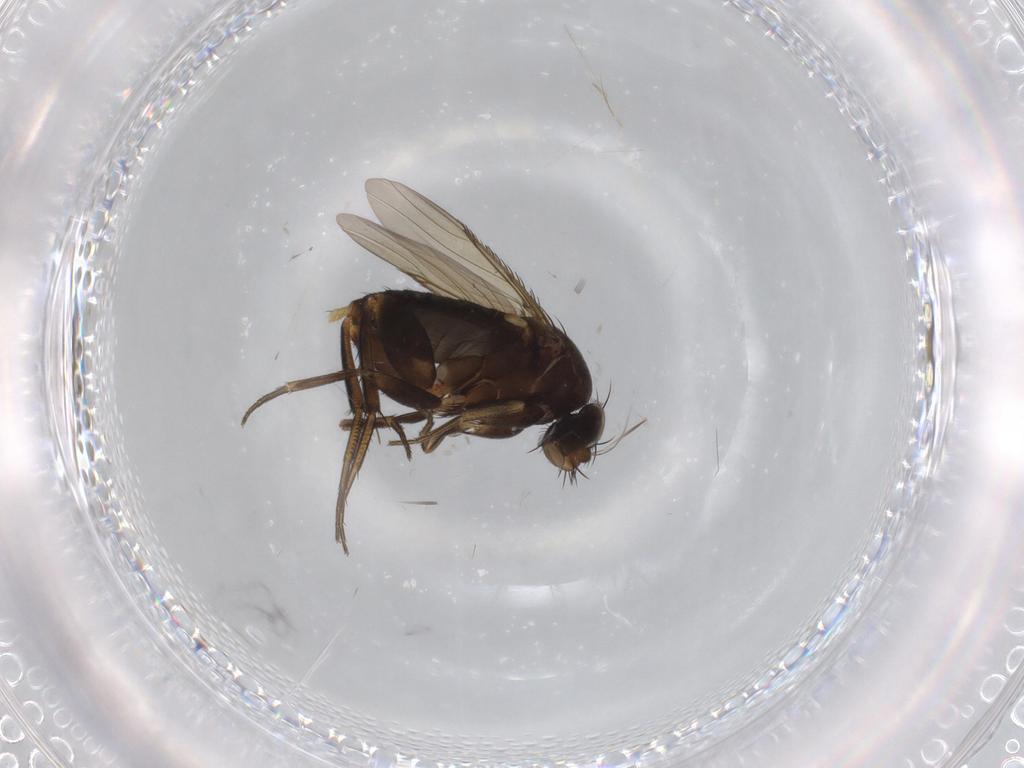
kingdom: Animalia
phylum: Arthropoda
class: Insecta
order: Diptera
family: Phoridae
